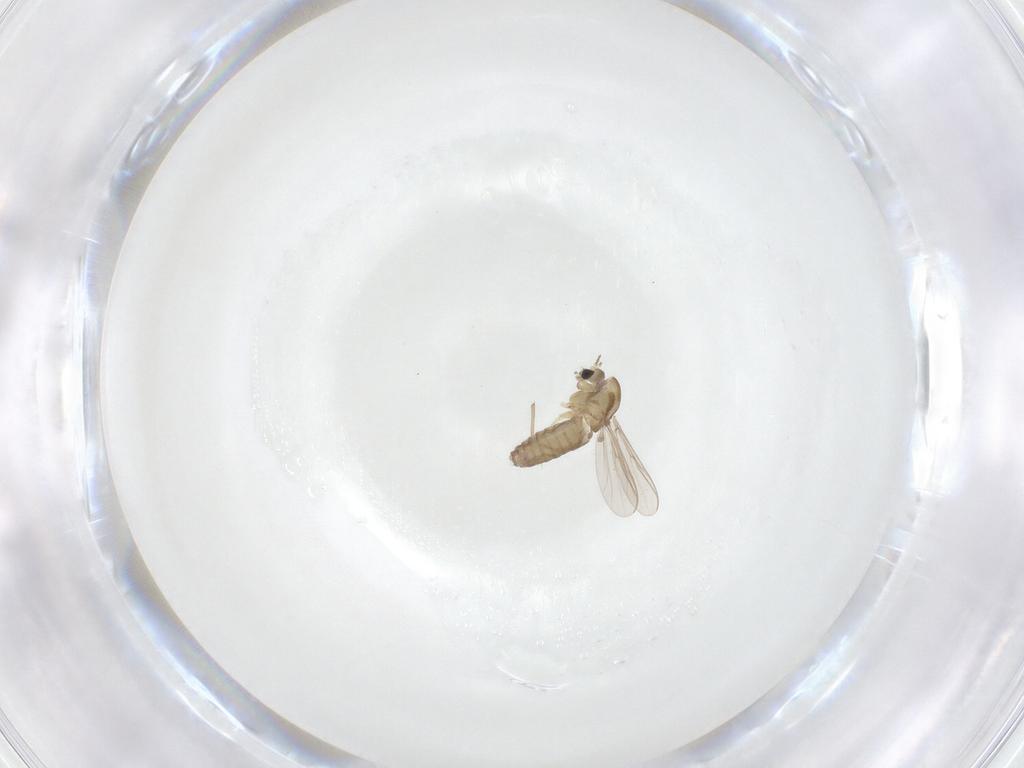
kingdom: Animalia
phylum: Arthropoda
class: Insecta
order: Diptera
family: Chironomidae
